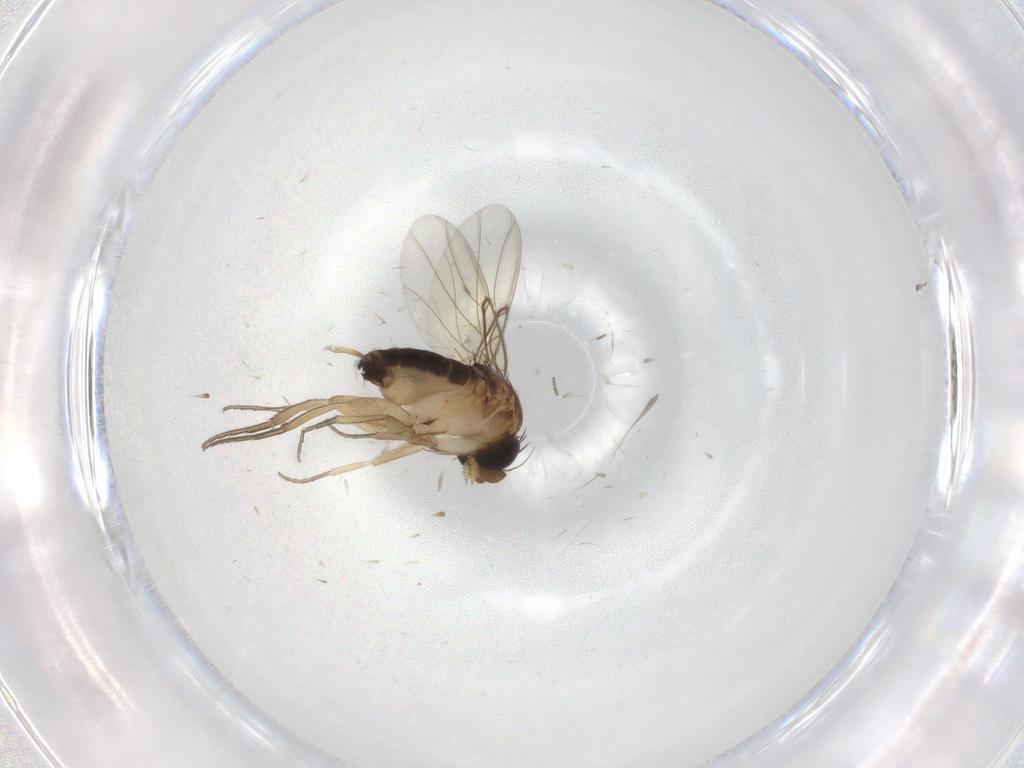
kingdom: Animalia
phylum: Arthropoda
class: Insecta
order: Diptera
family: Phoridae
